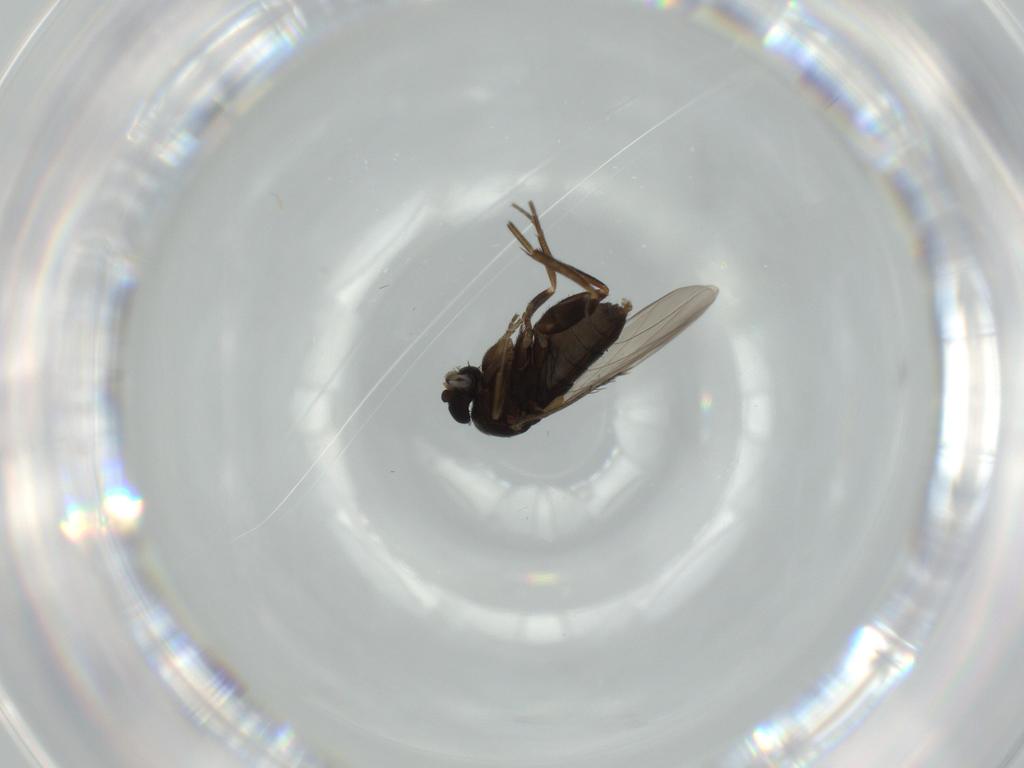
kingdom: Animalia
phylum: Arthropoda
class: Insecta
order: Diptera
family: Phoridae
